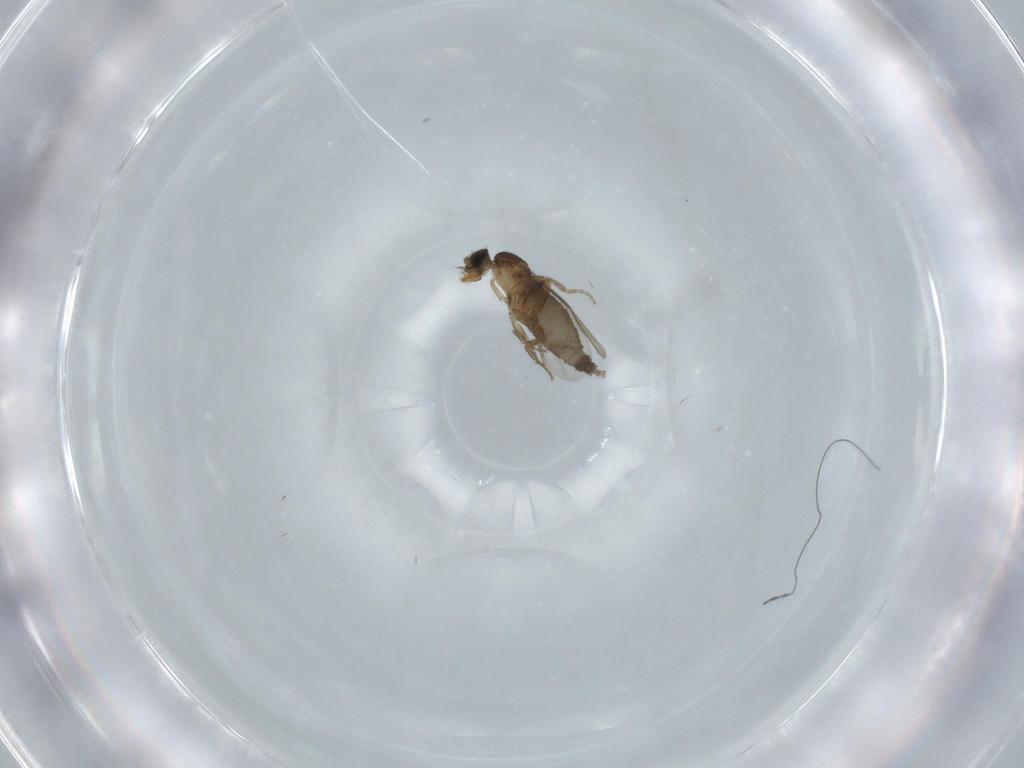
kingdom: Animalia
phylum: Arthropoda
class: Insecta
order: Diptera
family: Phoridae
